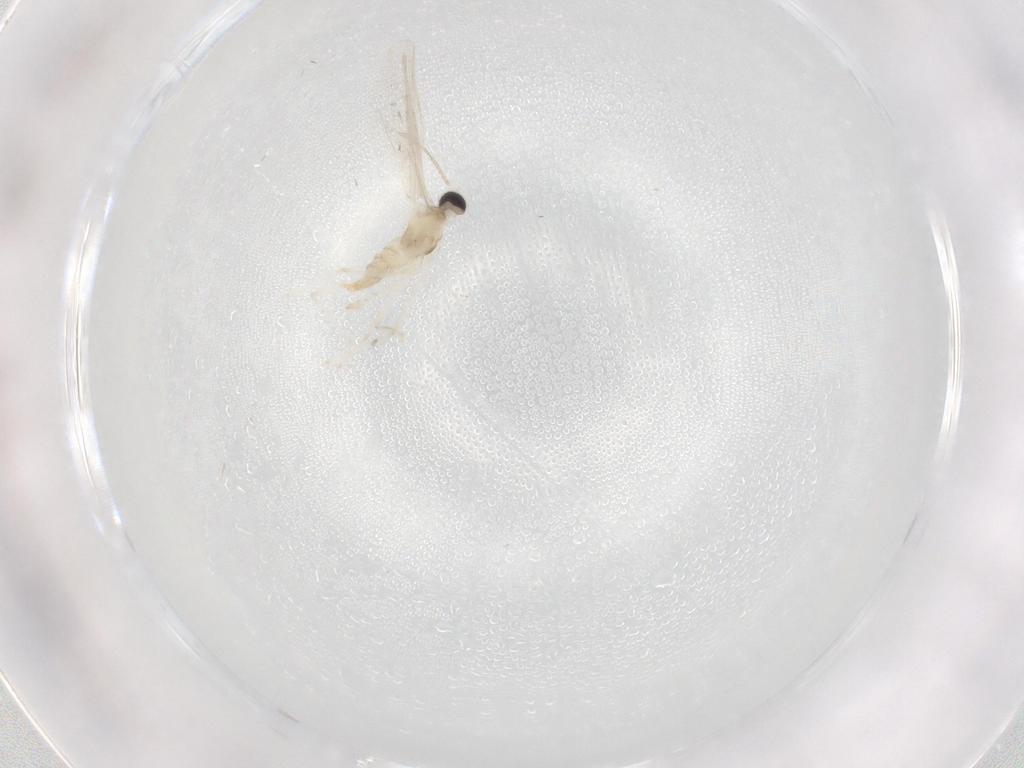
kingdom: Animalia
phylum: Arthropoda
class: Insecta
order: Diptera
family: Cecidomyiidae
